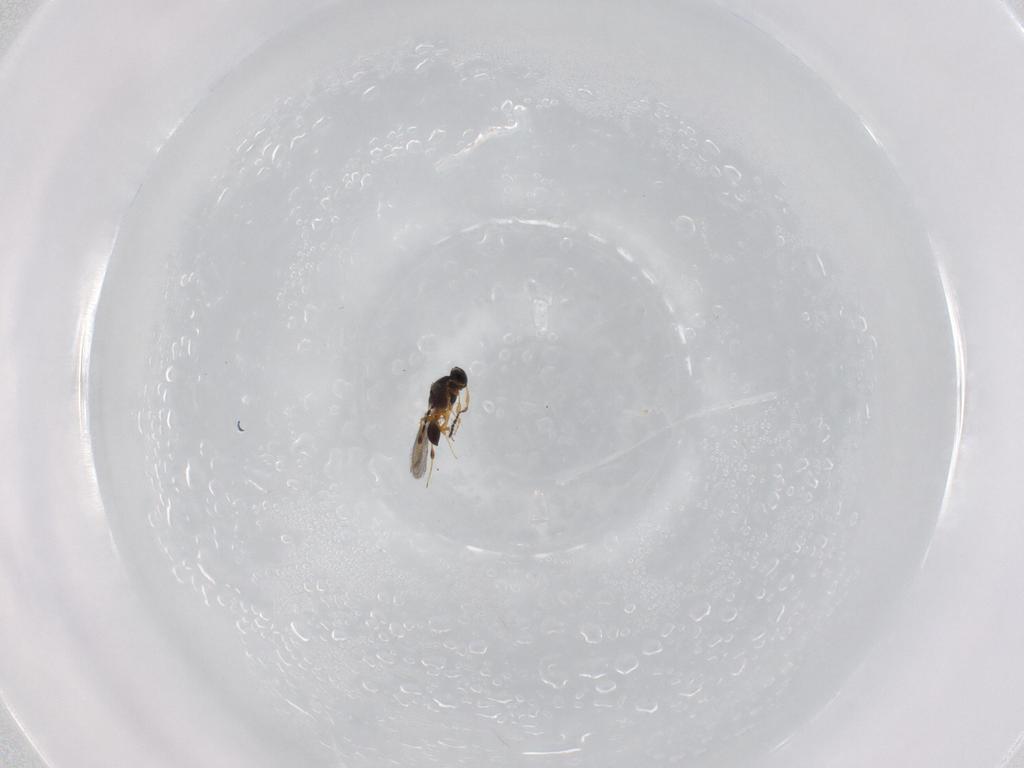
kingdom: Animalia
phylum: Arthropoda
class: Insecta
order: Hymenoptera
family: Platygastridae
